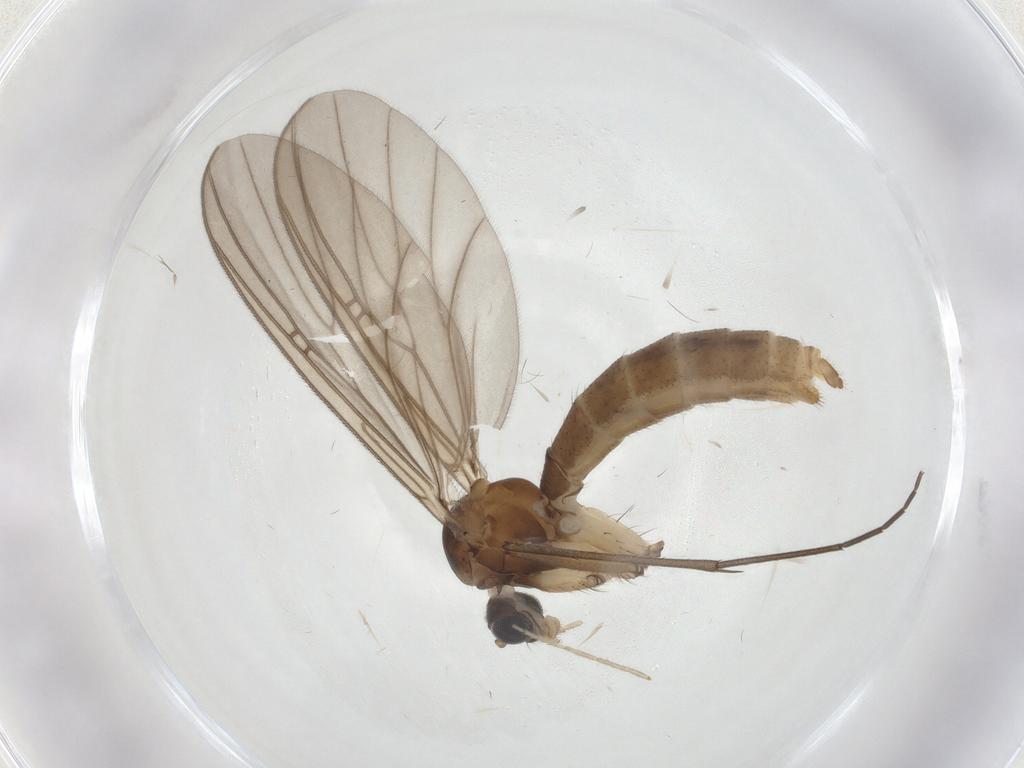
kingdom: Animalia
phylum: Arthropoda
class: Insecta
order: Diptera
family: Mycetophilidae
